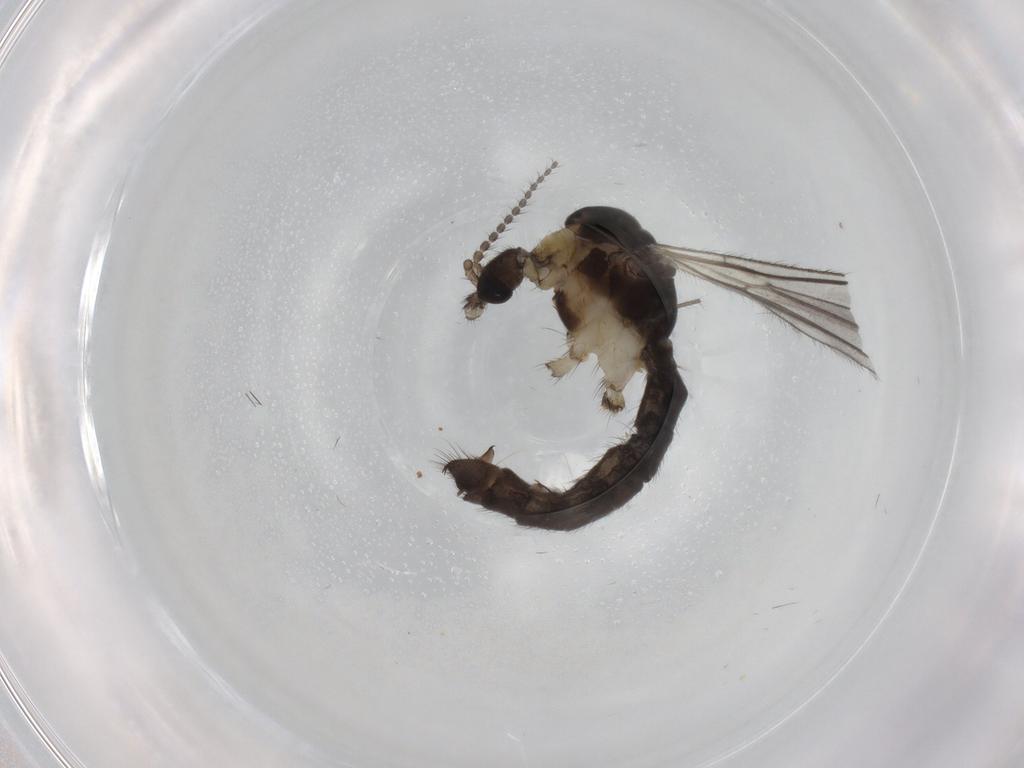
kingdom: Animalia
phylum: Arthropoda
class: Insecta
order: Diptera
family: Limoniidae
